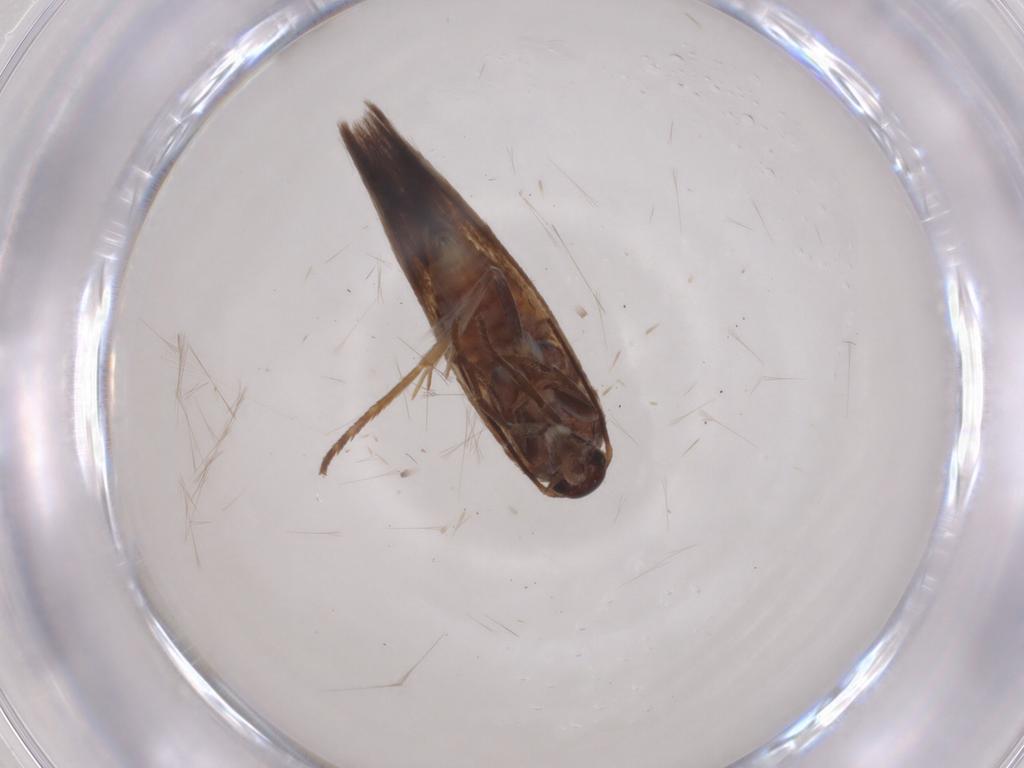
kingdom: Animalia
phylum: Arthropoda
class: Insecta
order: Lepidoptera
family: Scythrididae
